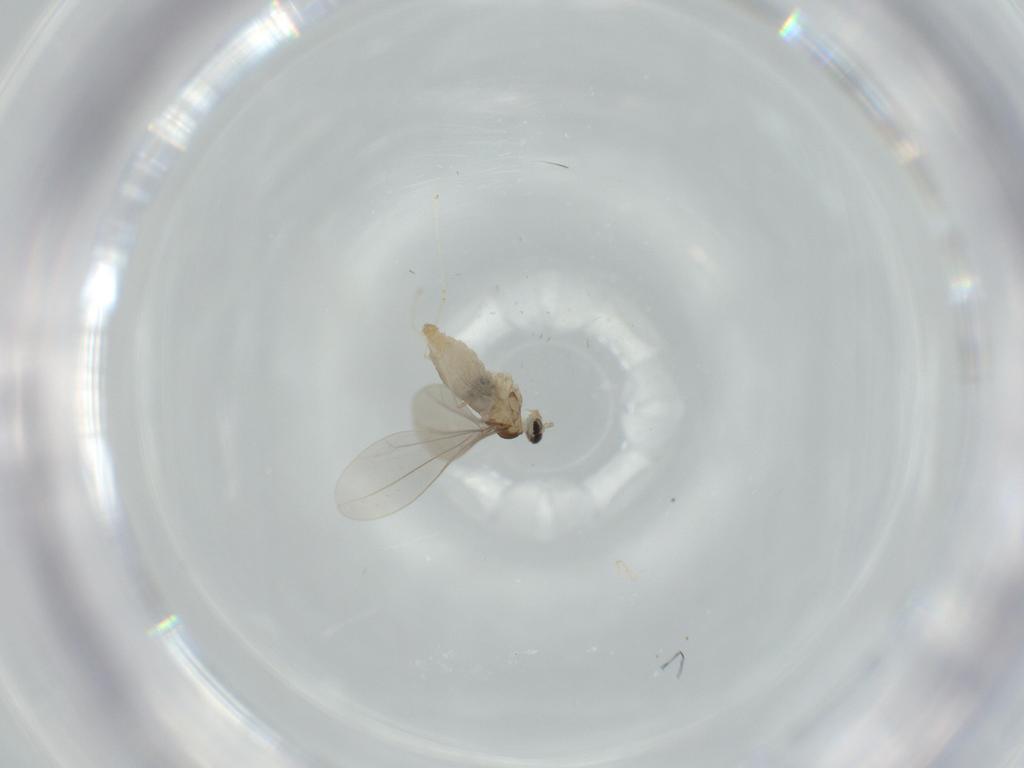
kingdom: Animalia
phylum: Arthropoda
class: Insecta
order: Diptera
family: Cecidomyiidae
